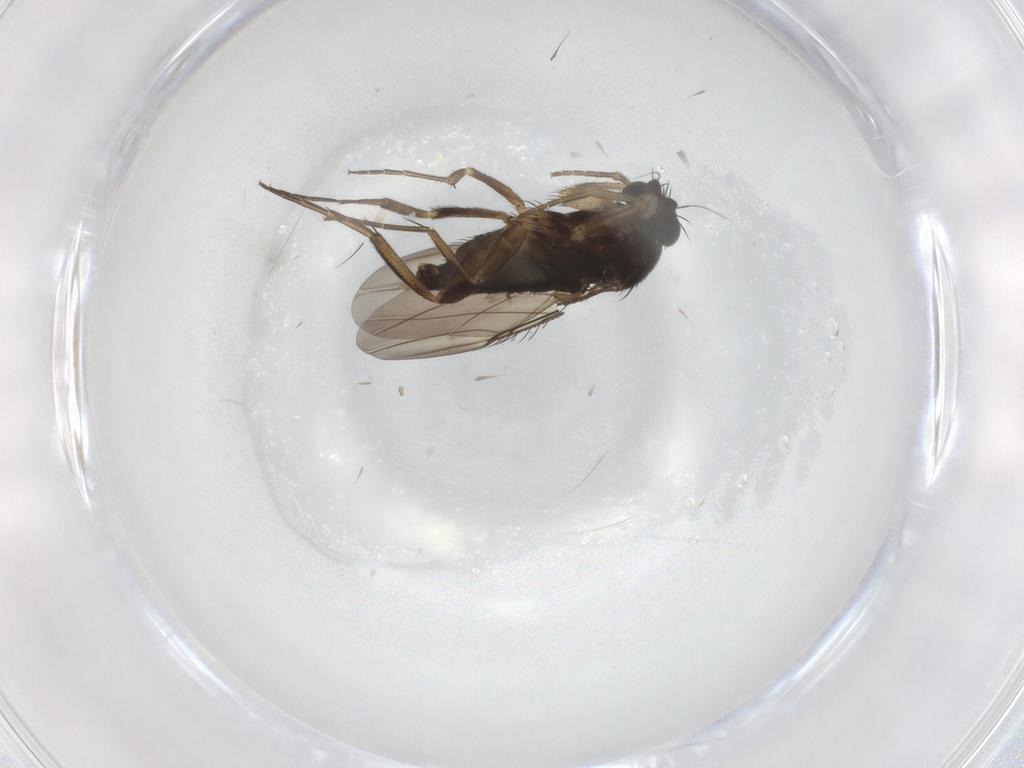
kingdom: Animalia
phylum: Arthropoda
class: Insecta
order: Diptera
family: Phoridae
